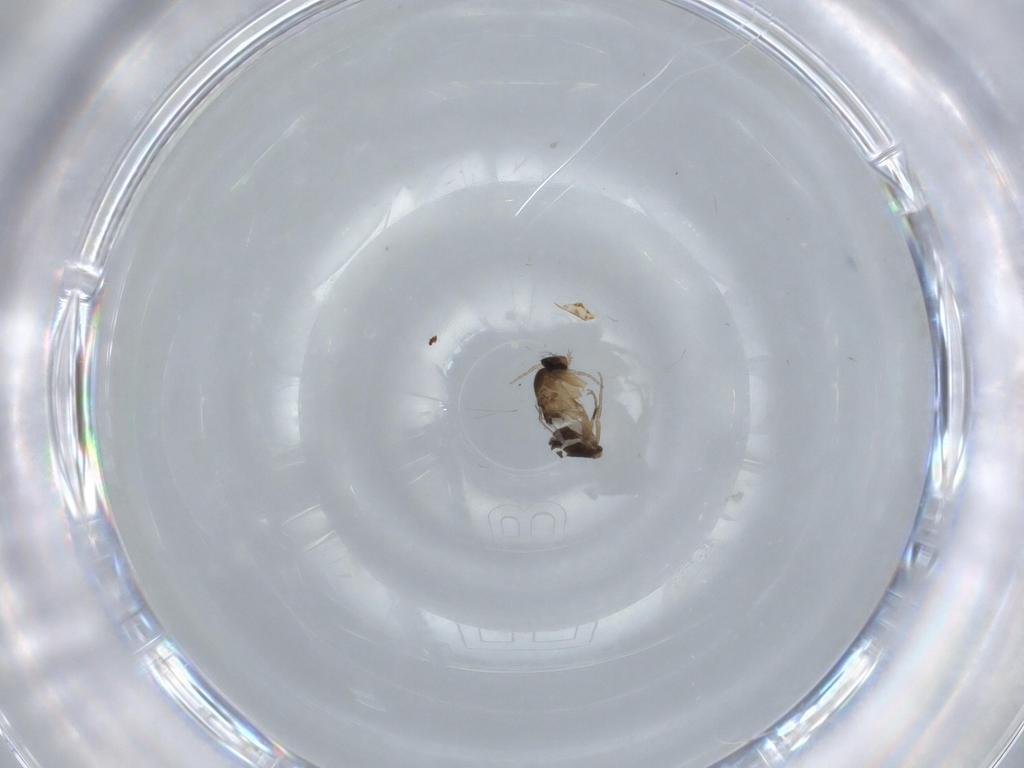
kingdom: Animalia
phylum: Arthropoda
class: Insecta
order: Diptera
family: Phoridae
